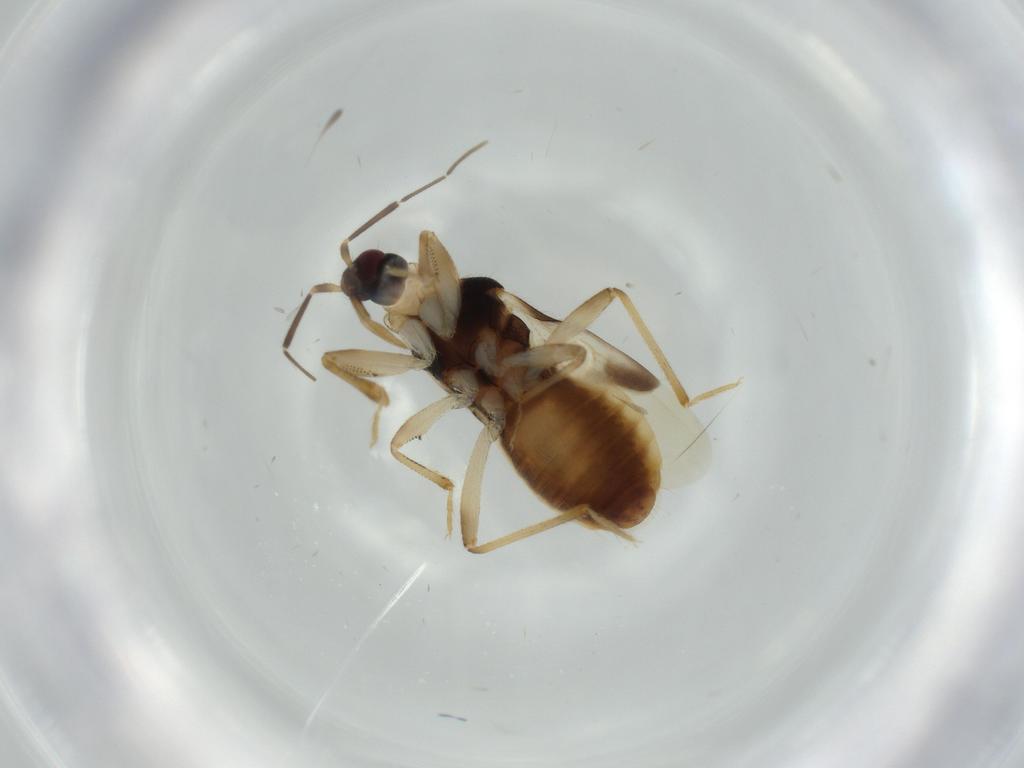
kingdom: Animalia
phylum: Arthropoda
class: Insecta
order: Hemiptera
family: Nabidae
